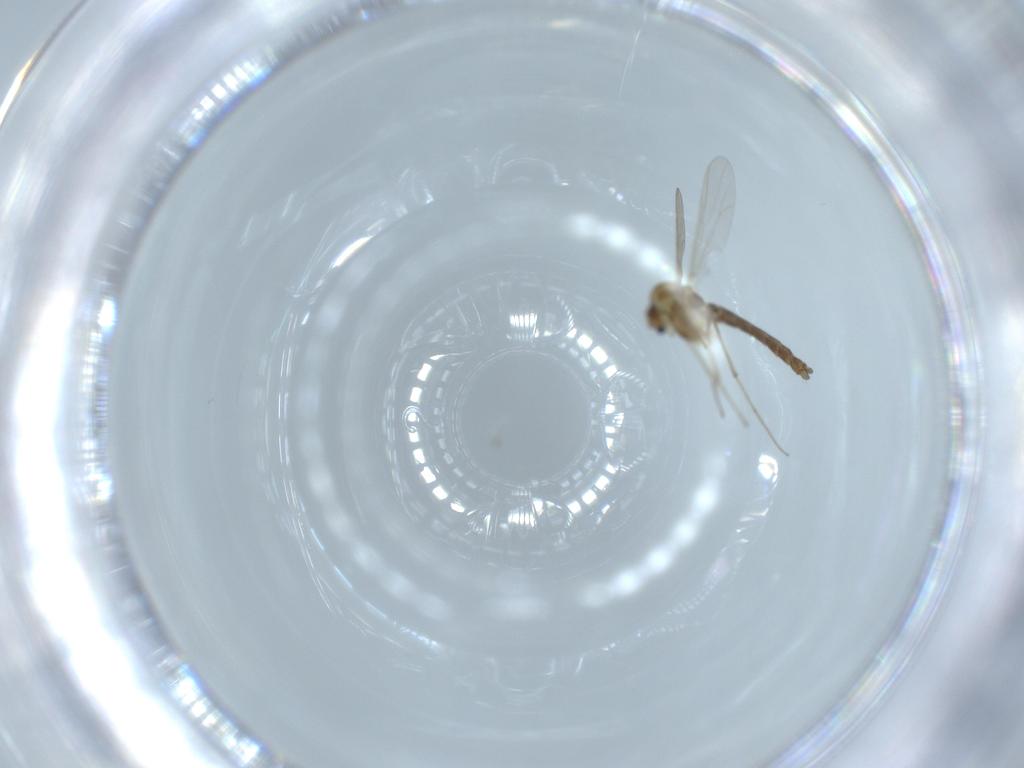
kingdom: Animalia
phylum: Arthropoda
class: Insecta
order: Diptera
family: Chironomidae
